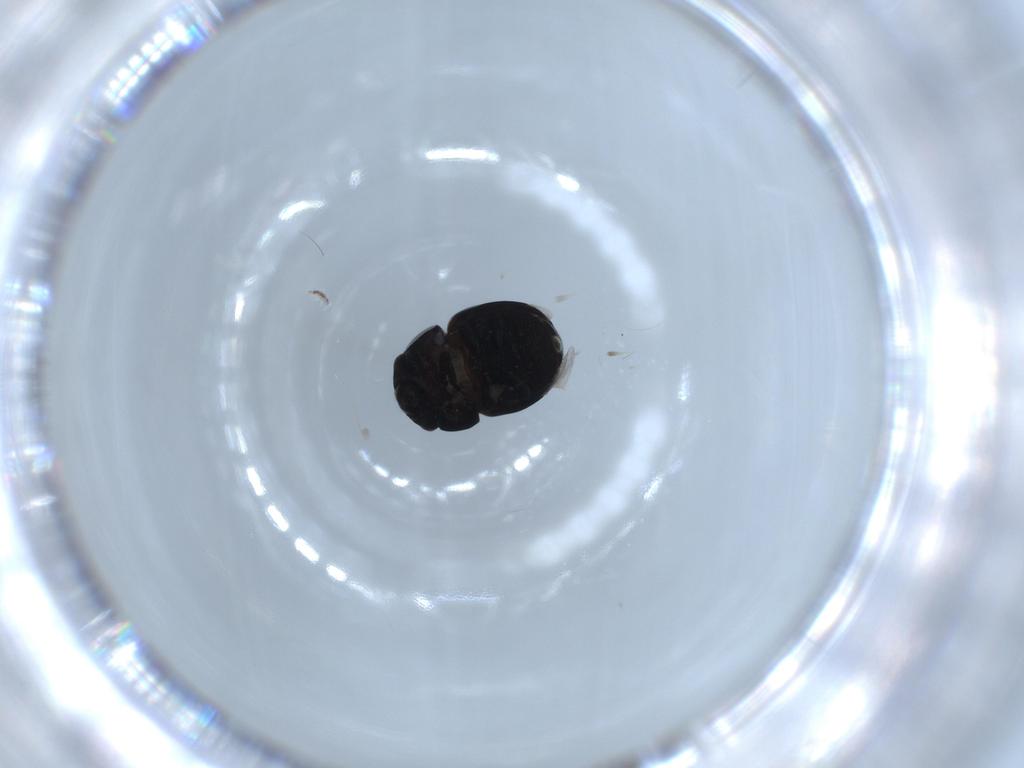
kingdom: Animalia
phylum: Arthropoda
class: Insecta
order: Coleoptera
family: Cybocephalidae
